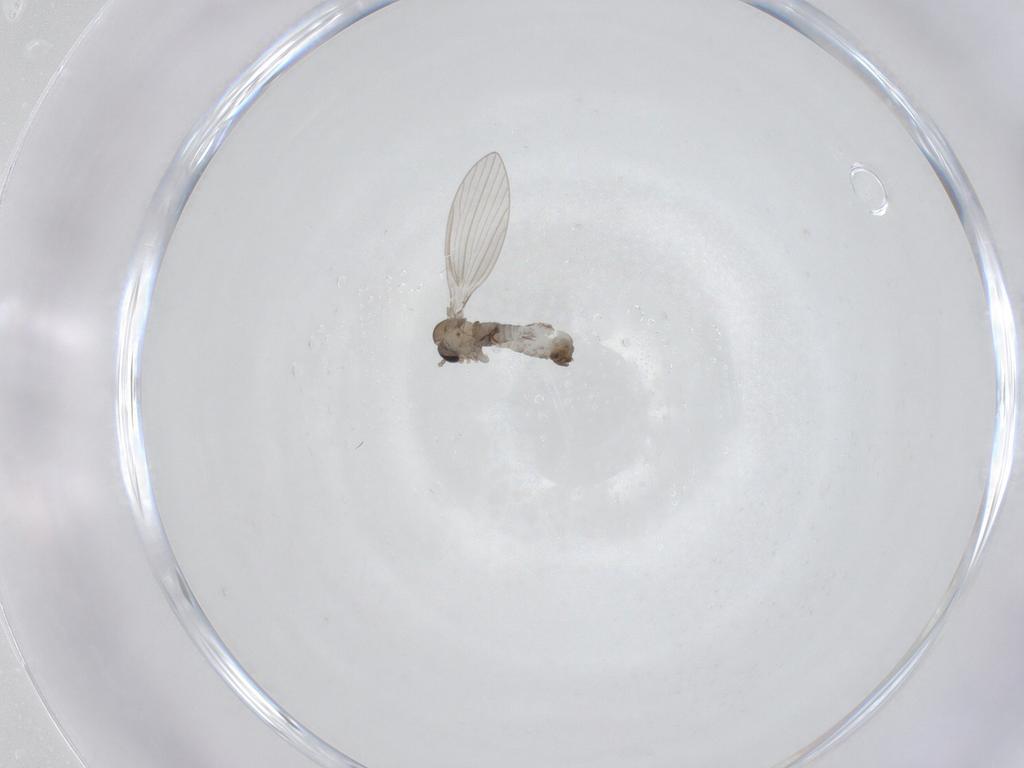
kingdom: Animalia
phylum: Arthropoda
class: Insecta
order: Diptera
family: Psychodidae
